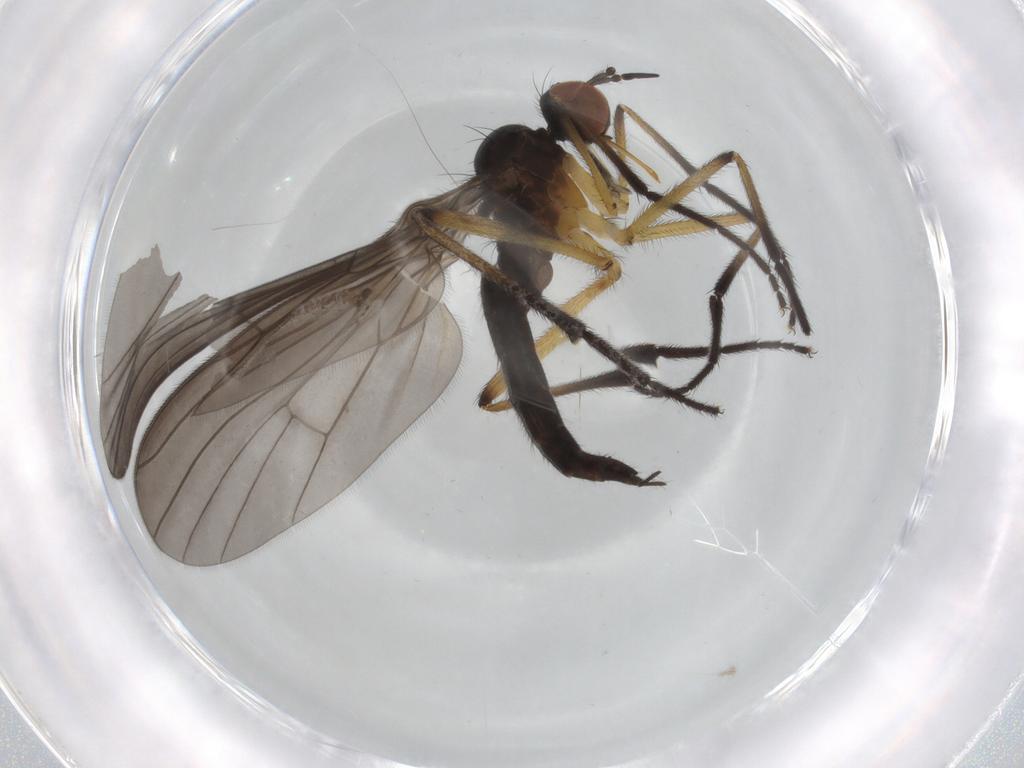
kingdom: Animalia
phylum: Arthropoda
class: Insecta
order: Diptera
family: Empididae
